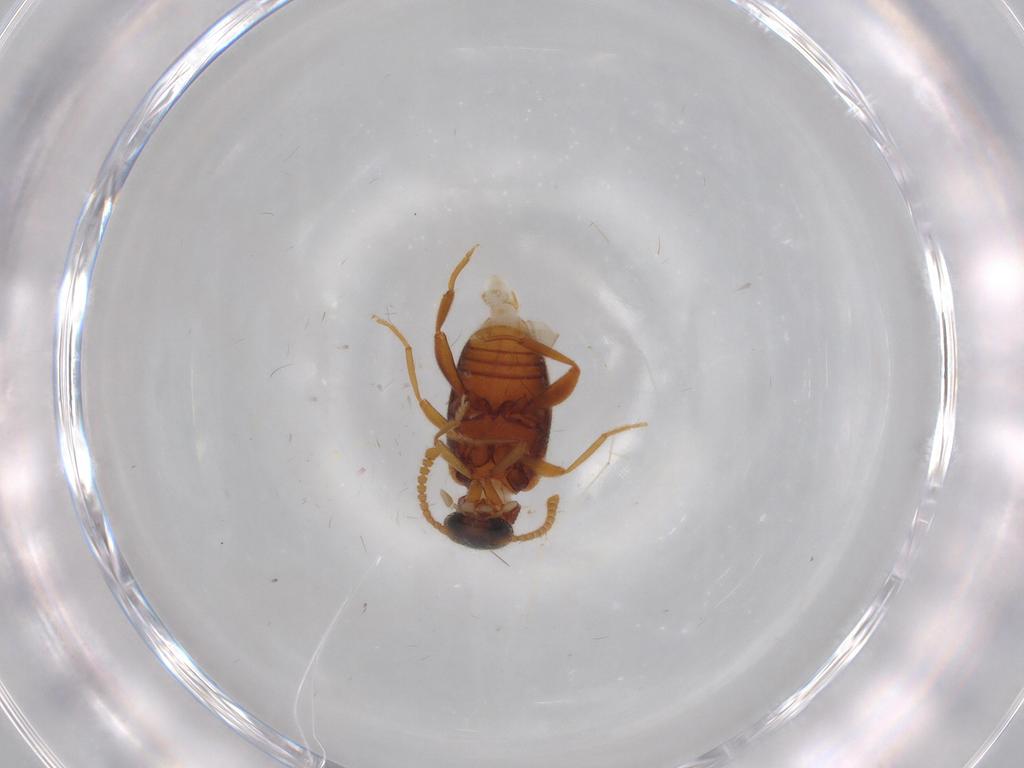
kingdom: Animalia
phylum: Arthropoda
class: Insecta
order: Coleoptera
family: Aderidae
